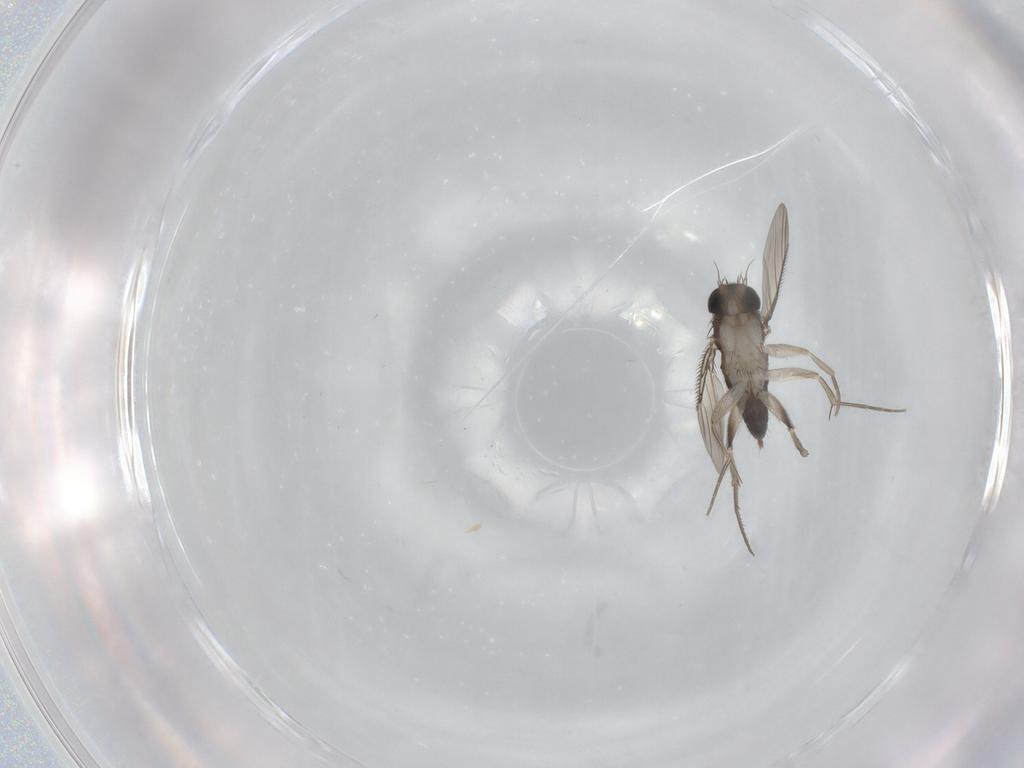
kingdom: Animalia
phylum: Arthropoda
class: Insecta
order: Diptera
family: Phoridae
